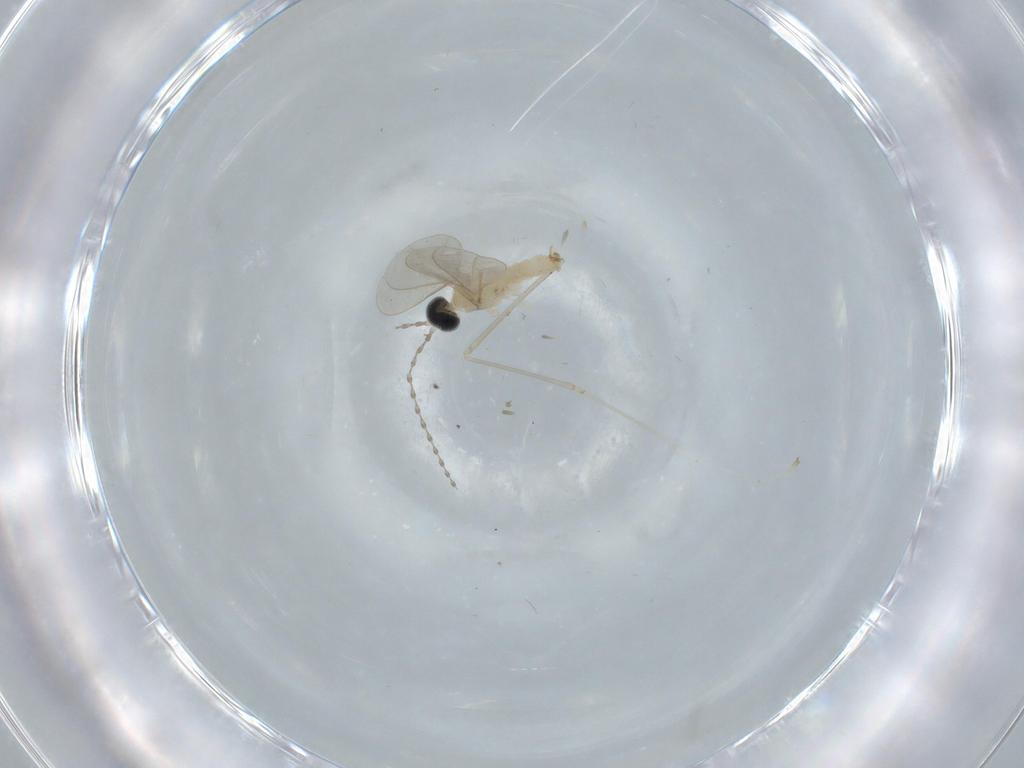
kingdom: Animalia
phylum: Arthropoda
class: Insecta
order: Diptera
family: Cecidomyiidae
